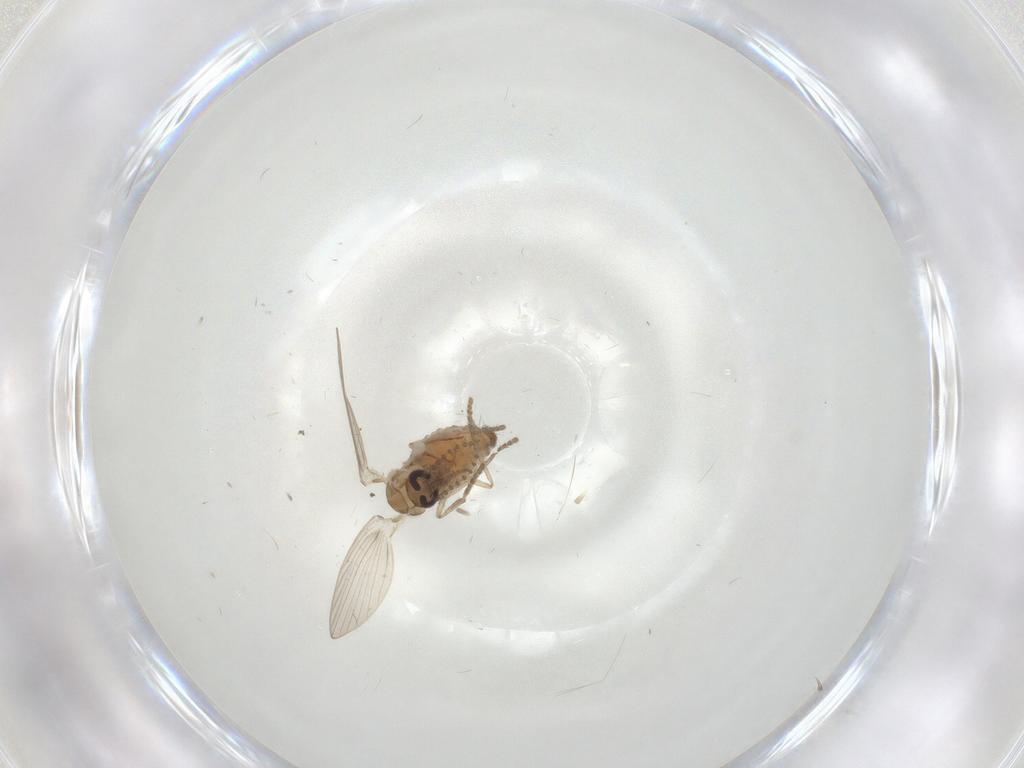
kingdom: Animalia
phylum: Arthropoda
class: Insecta
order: Diptera
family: Psychodidae
